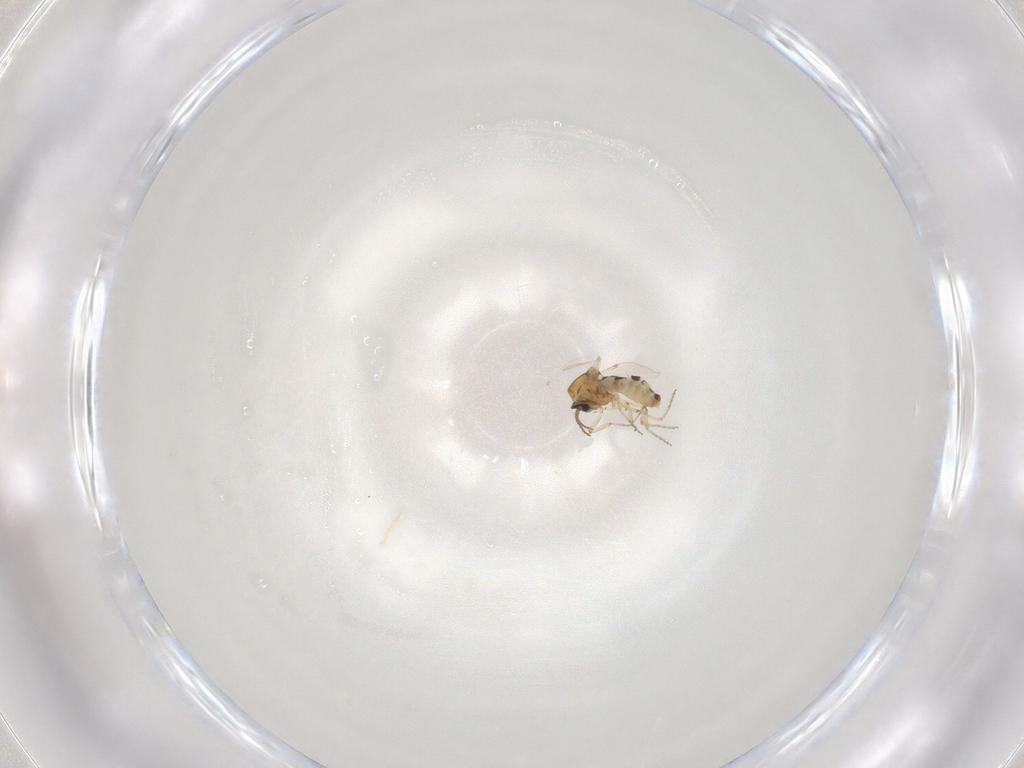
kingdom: Animalia
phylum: Arthropoda
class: Insecta
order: Diptera
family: Ceratopogonidae
